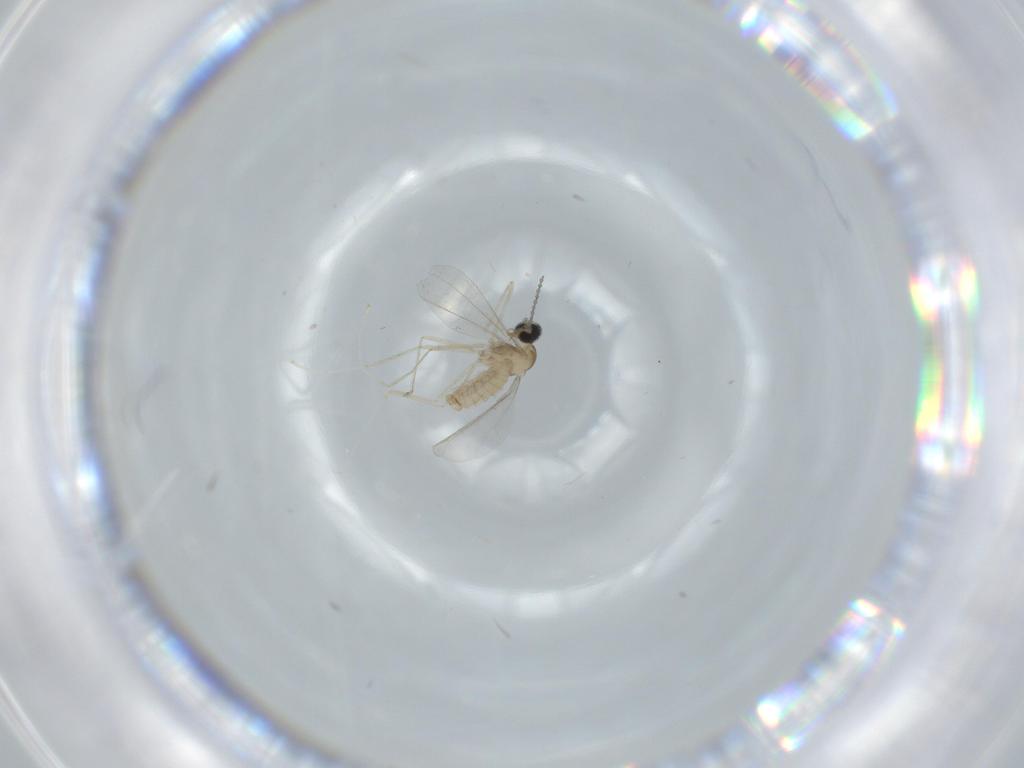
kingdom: Animalia
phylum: Arthropoda
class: Insecta
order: Diptera
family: Cecidomyiidae
